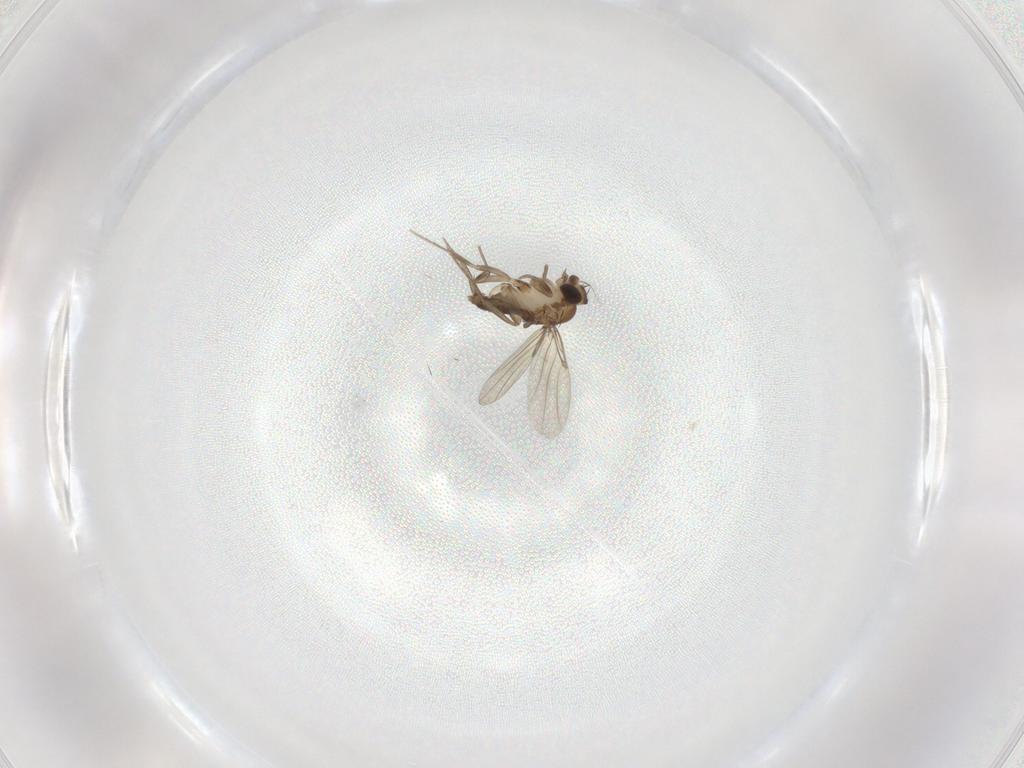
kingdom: Animalia
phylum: Arthropoda
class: Insecta
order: Diptera
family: Phoridae
